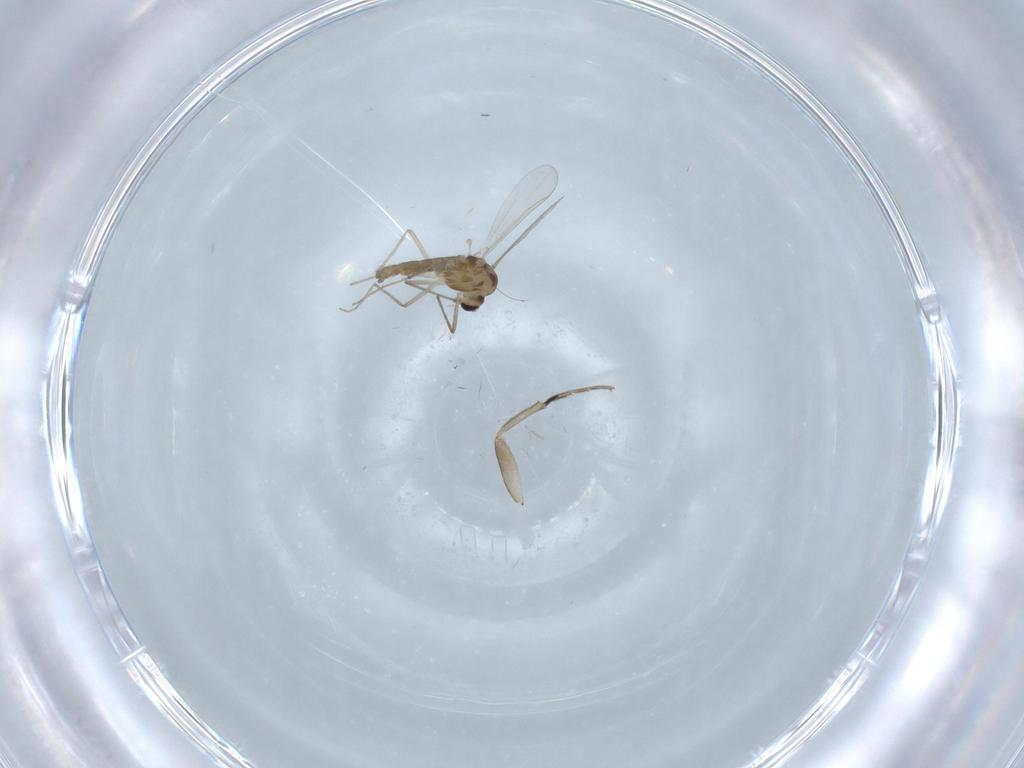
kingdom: Animalia
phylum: Arthropoda
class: Insecta
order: Diptera
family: Chironomidae
